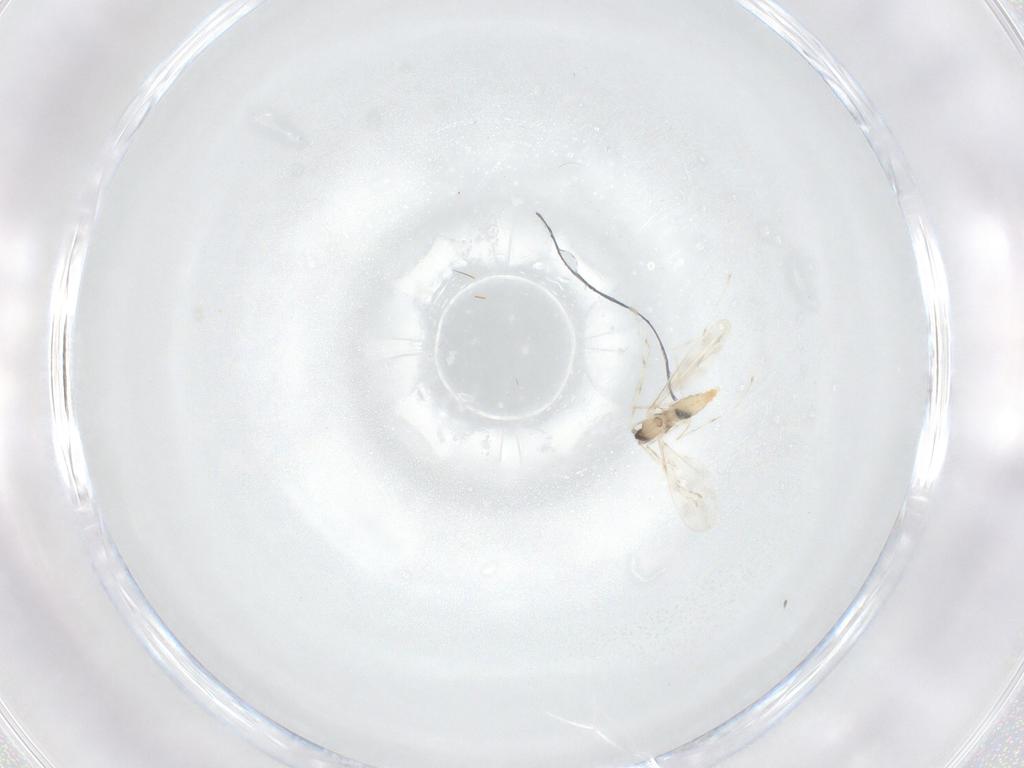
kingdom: Animalia
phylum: Arthropoda
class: Insecta
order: Diptera
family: Cecidomyiidae
